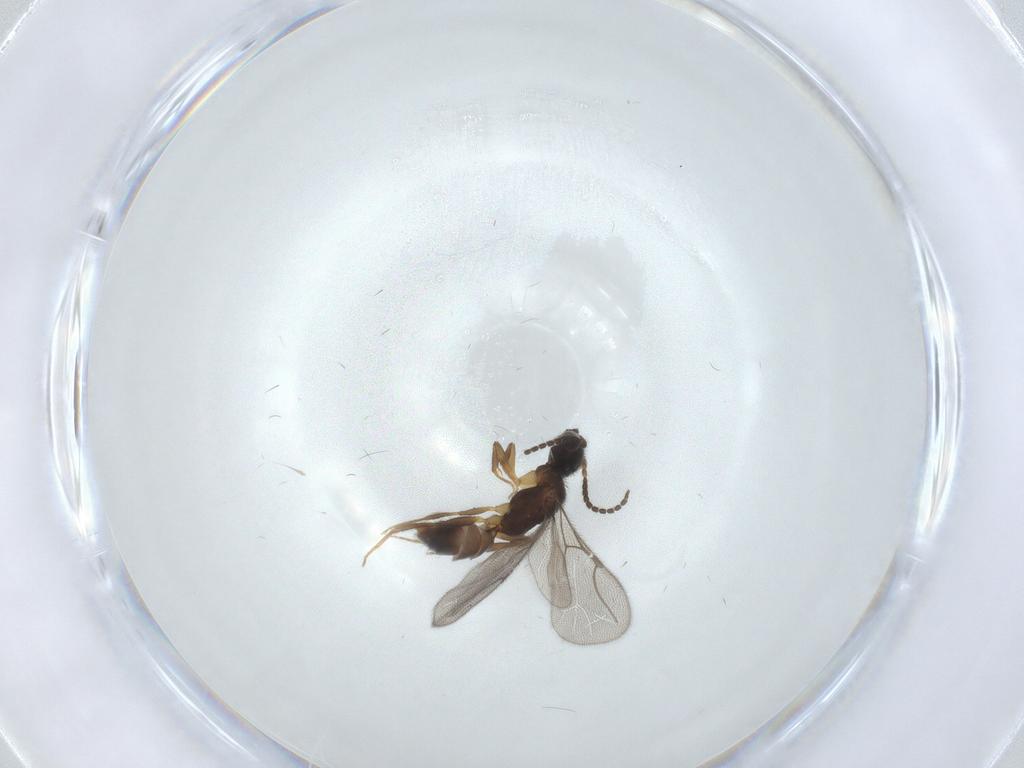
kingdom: Animalia
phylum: Arthropoda
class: Insecta
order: Hymenoptera
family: Bethylidae
